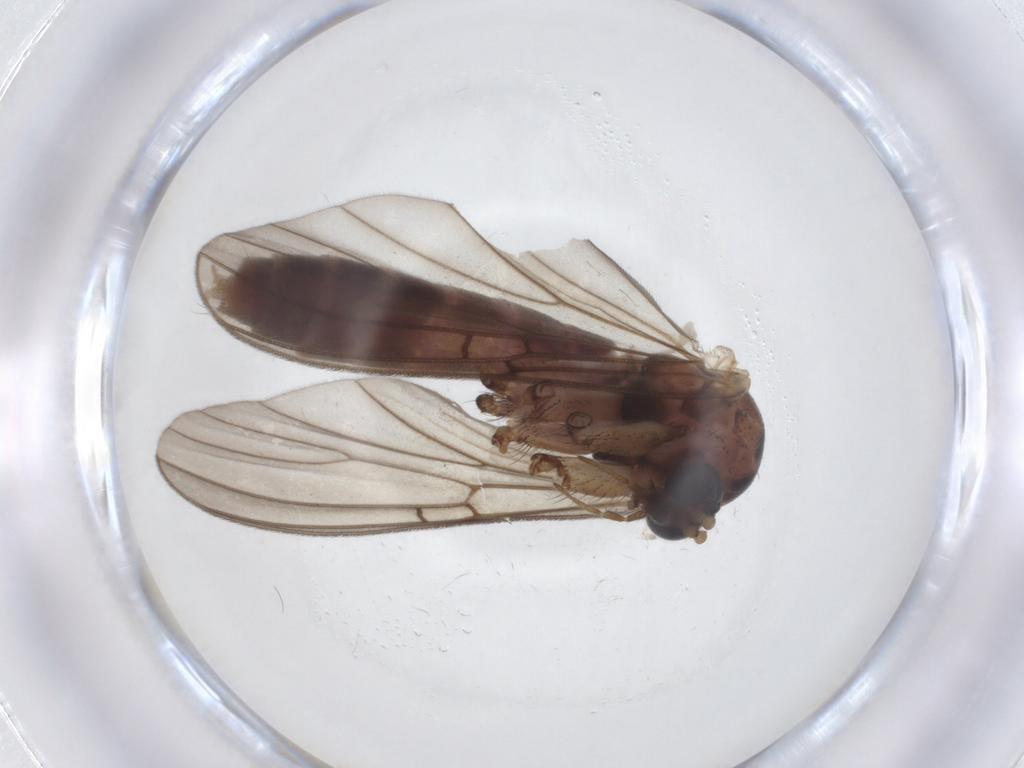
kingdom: Animalia
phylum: Arthropoda
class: Insecta
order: Diptera
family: Mycetophilidae
